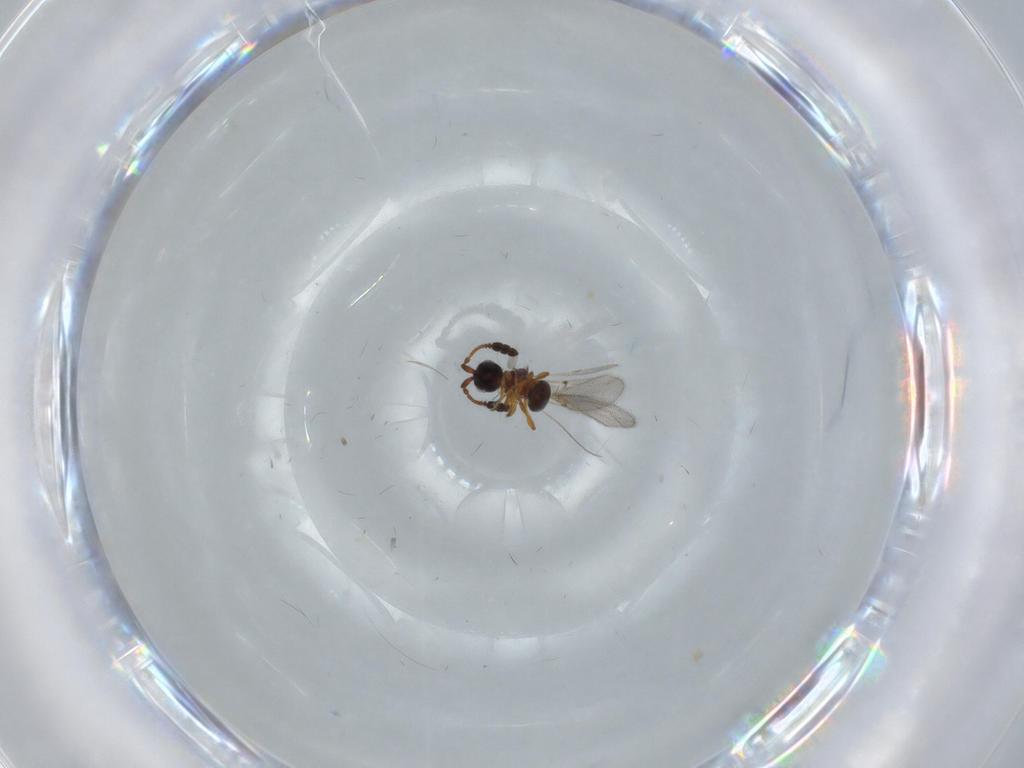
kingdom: Animalia
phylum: Arthropoda
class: Insecta
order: Hymenoptera
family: Diapriidae
